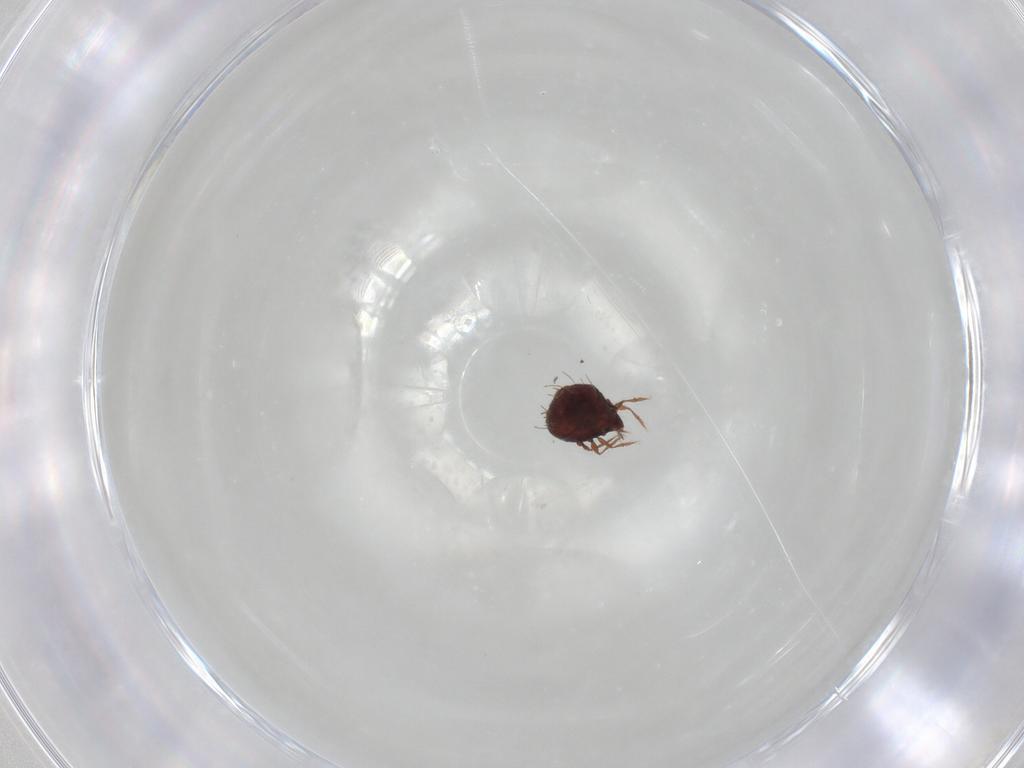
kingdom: Animalia
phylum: Arthropoda
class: Arachnida
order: Sarcoptiformes
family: Caloppiidae
